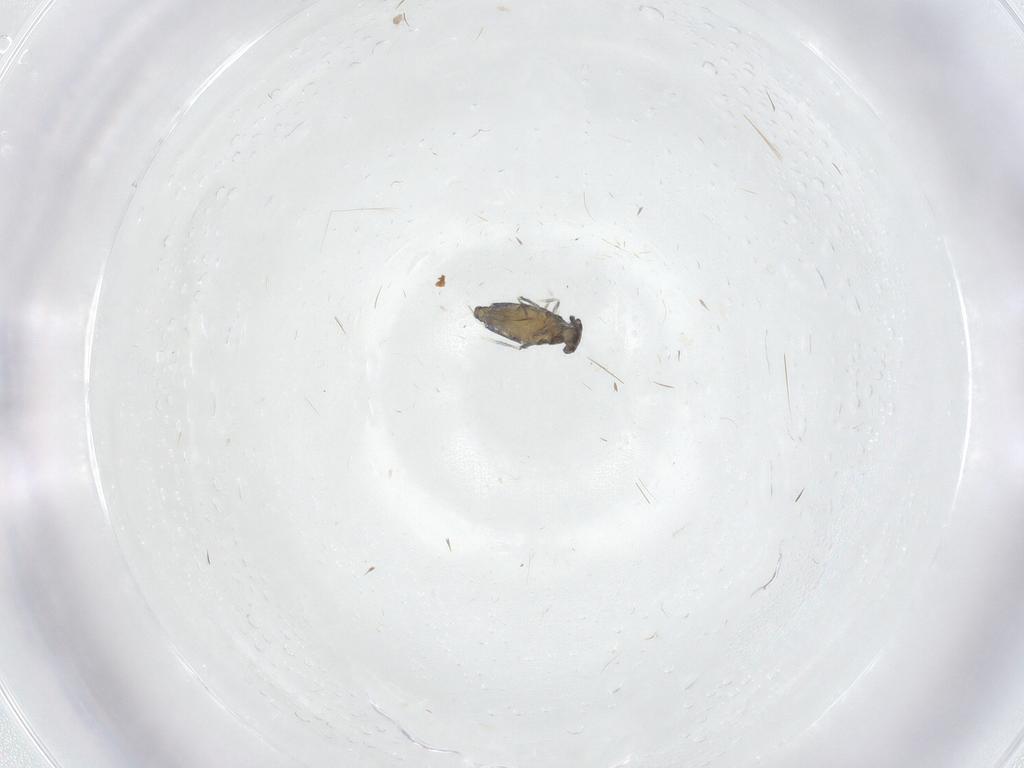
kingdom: Animalia
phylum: Arthropoda
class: Collembola
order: Entomobryomorpha
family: Entomobryidae
